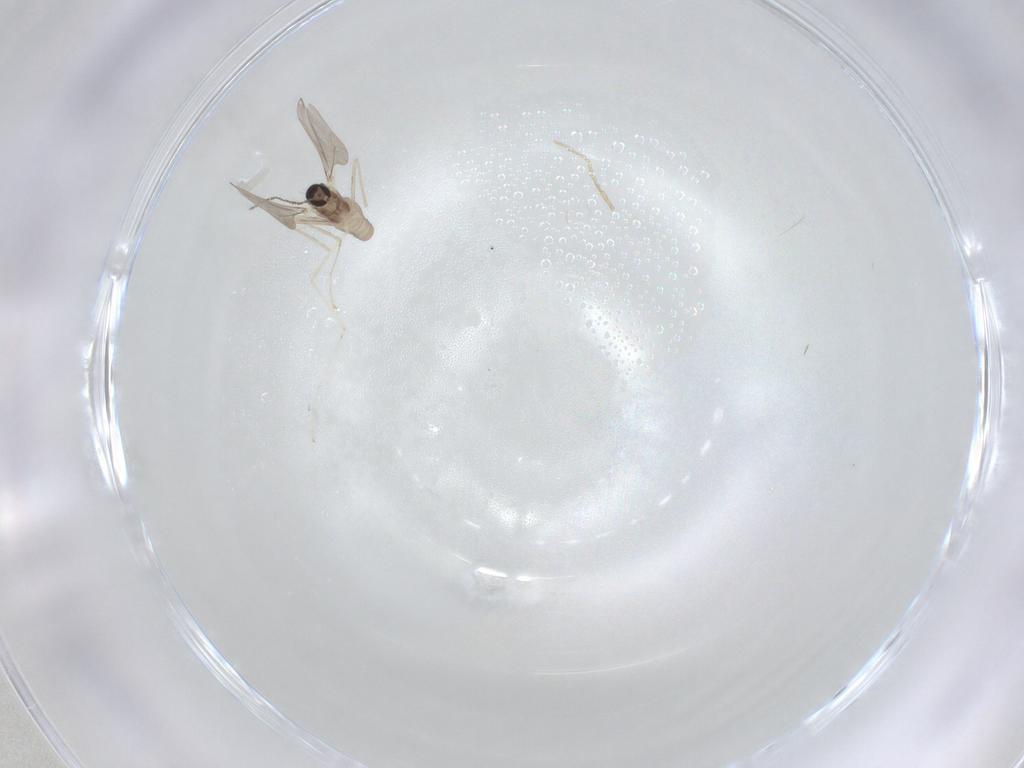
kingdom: Animalia
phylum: Arthropoda
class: Insecta
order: Diptera
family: Cecidomyiidae
